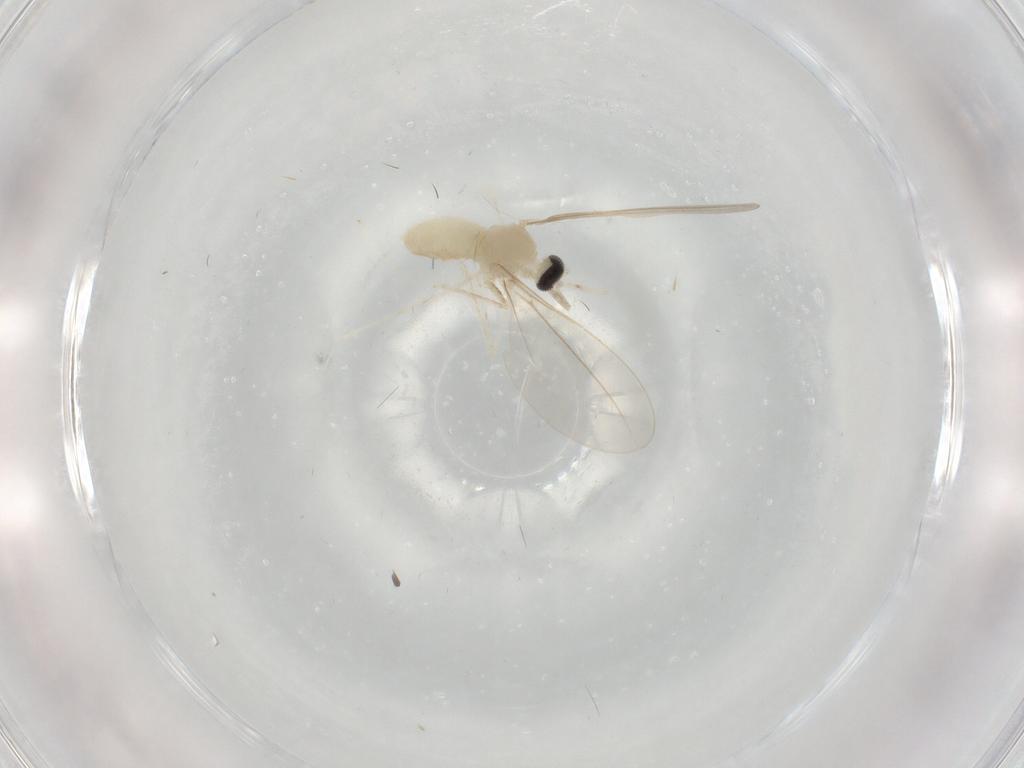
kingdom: Animalia
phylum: Arthropoda
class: Insecta
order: Diptera
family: Cecidomyiidae
